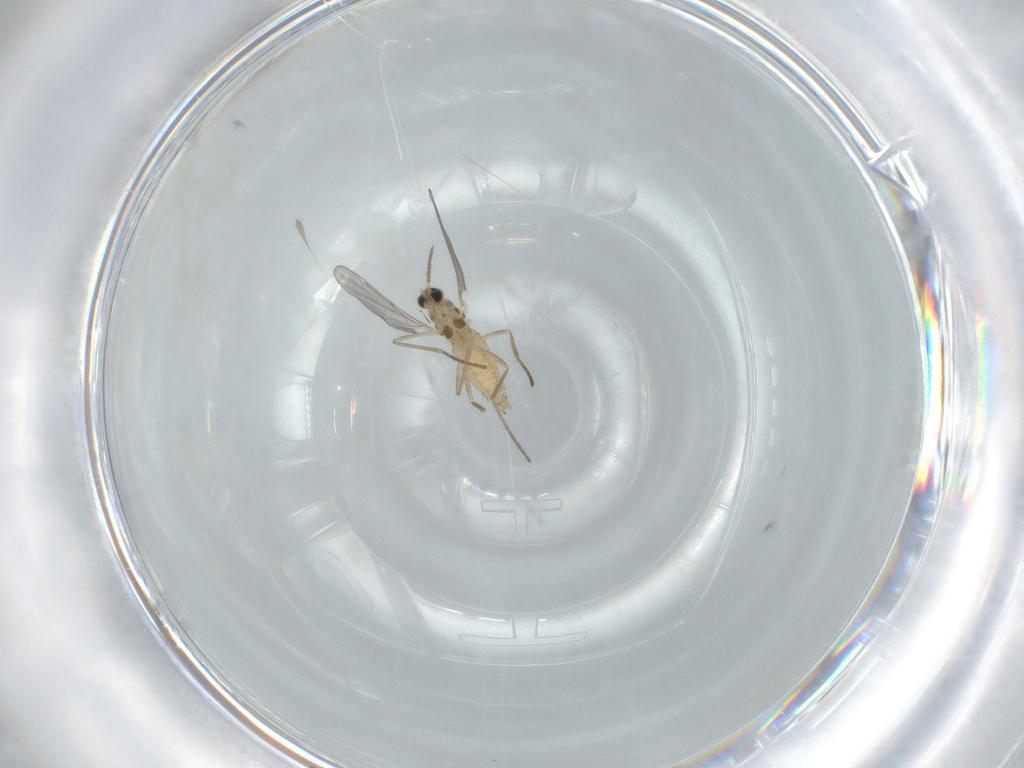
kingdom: Animalia
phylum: Arthropoda
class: Insecta
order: Diptera
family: Cecidomyiidae
